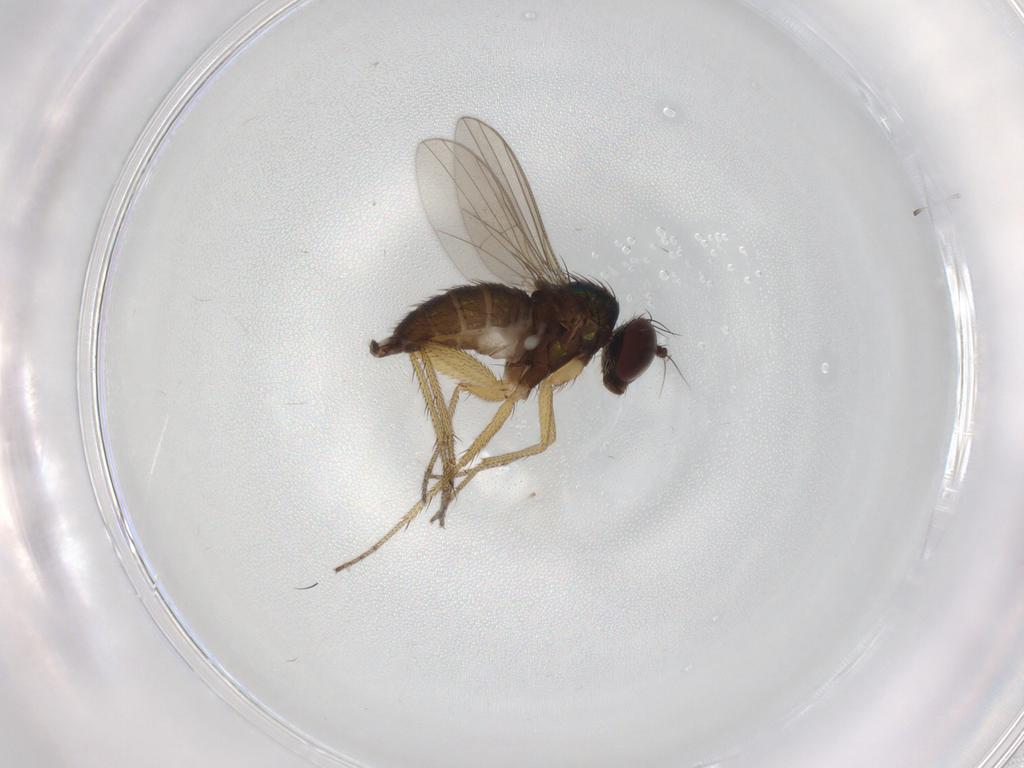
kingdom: Animalia
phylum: Arthropoda
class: Insecta
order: Diptera
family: Dolichopodidae
